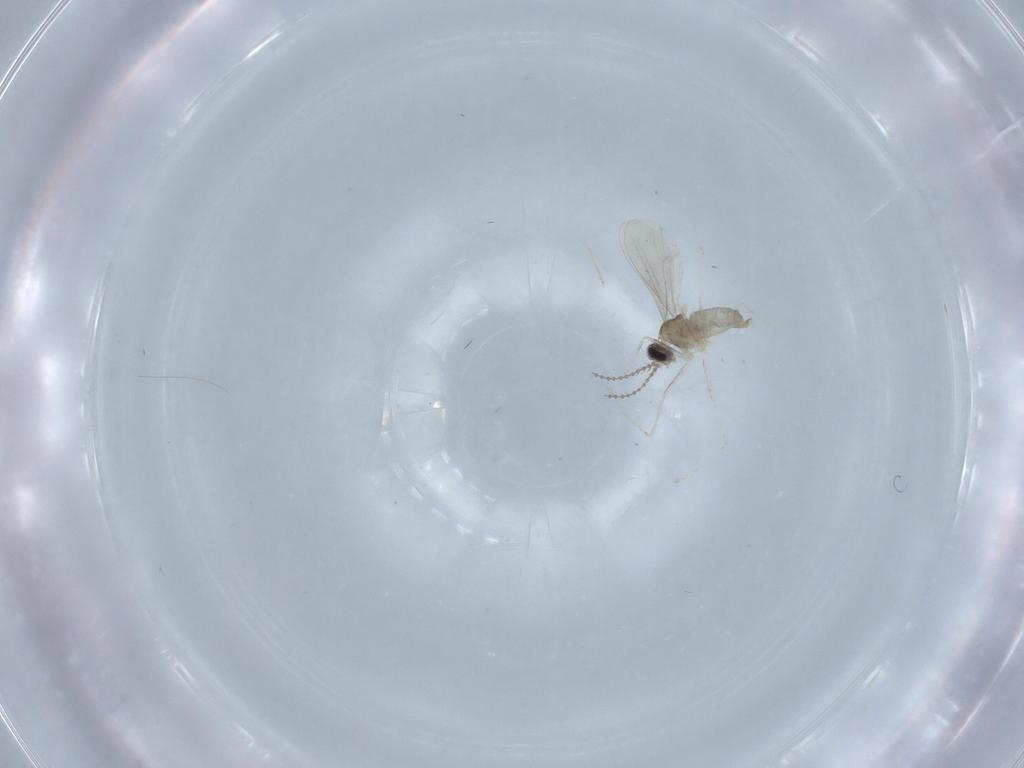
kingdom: Animalia
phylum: Arthropoda
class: Insecta
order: Diptera
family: Chironomidae
